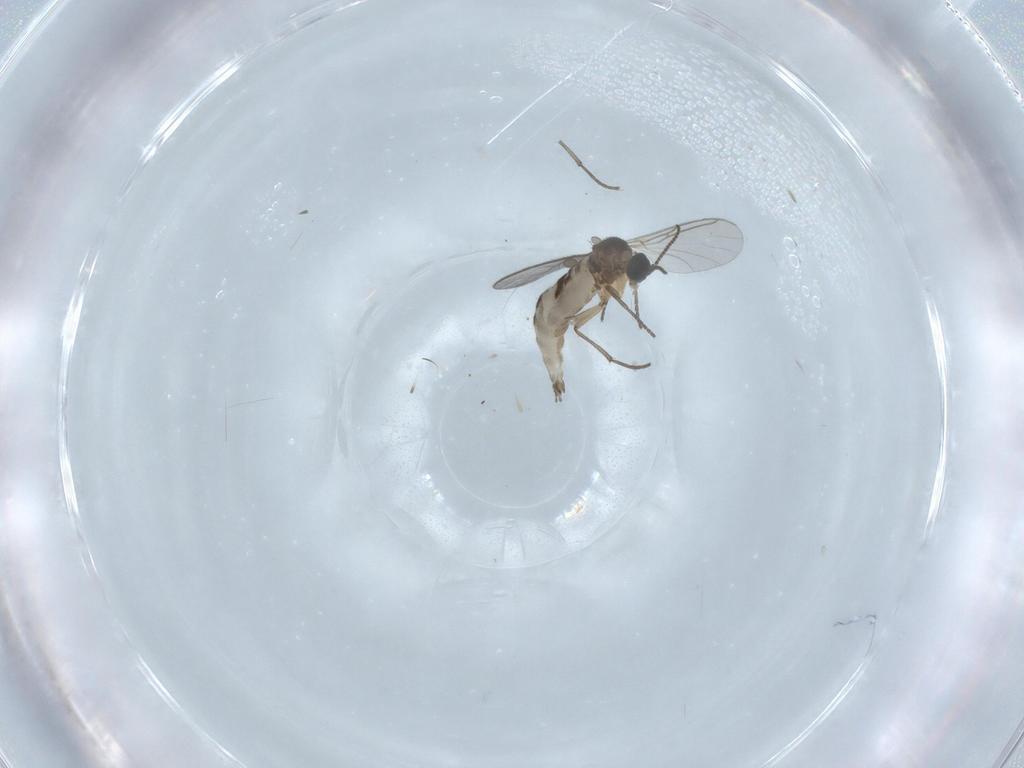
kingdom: Animalia
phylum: Arthropoda
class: Insecta
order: Diptera
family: Sciaridae
